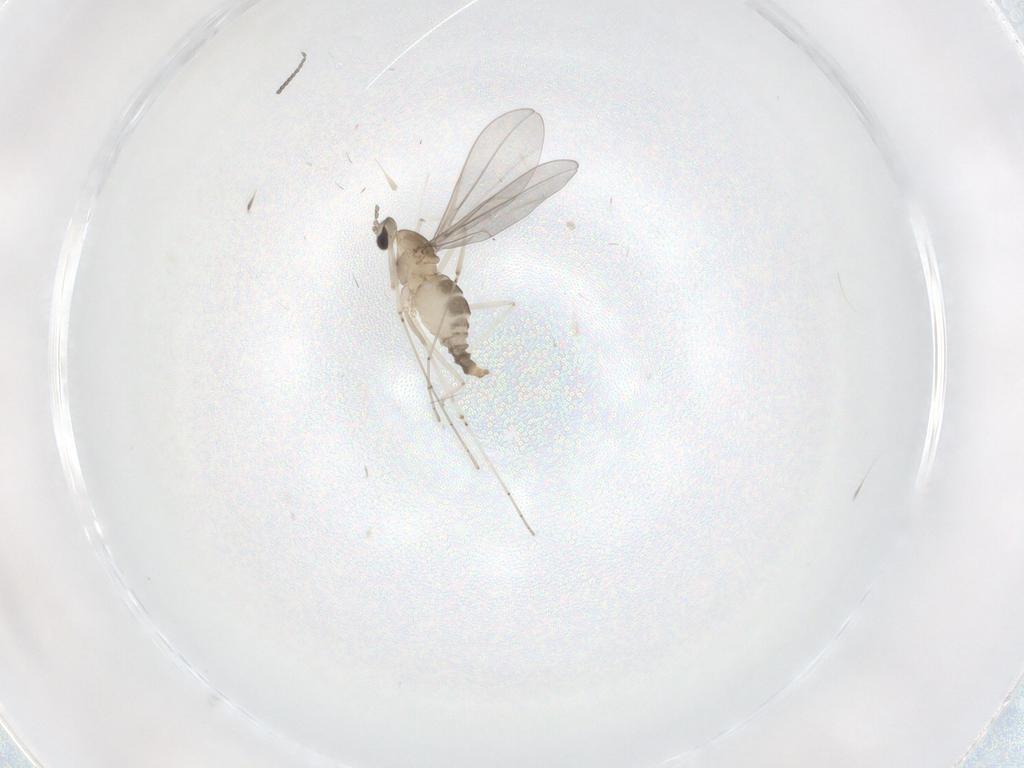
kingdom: Animalia
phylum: Arthropoda
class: Insecta
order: Diptera
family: Cecidomyiidae
